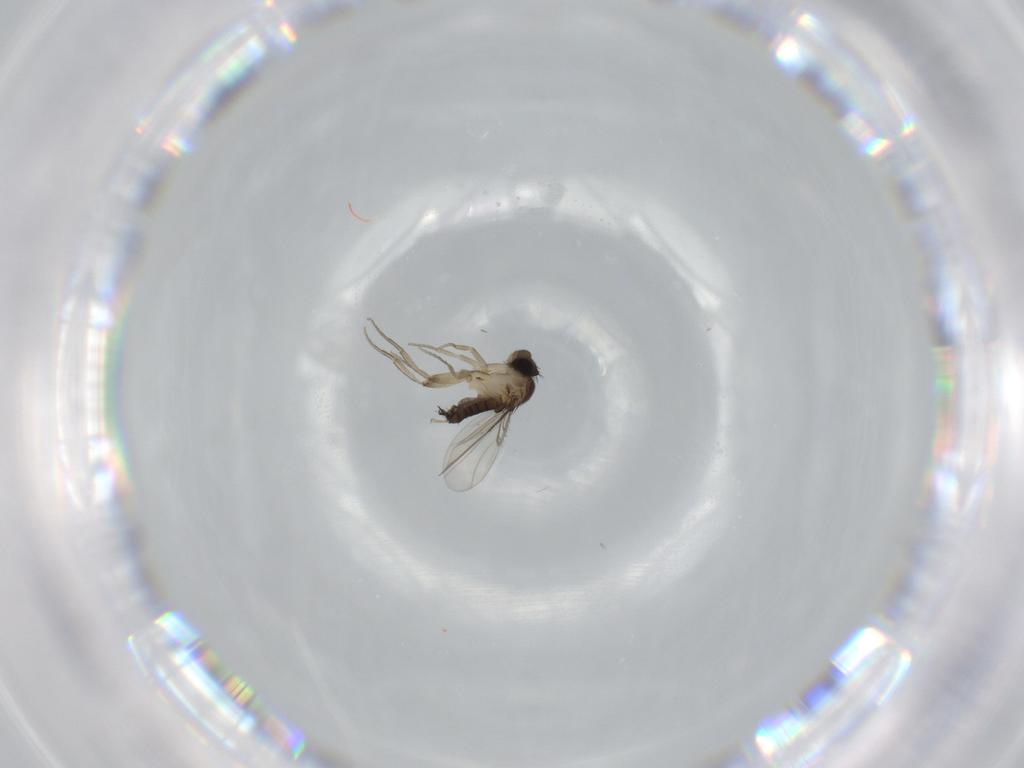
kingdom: Animalia
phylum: Arthropoda
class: Insecta
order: Diptera
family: Phoridae
